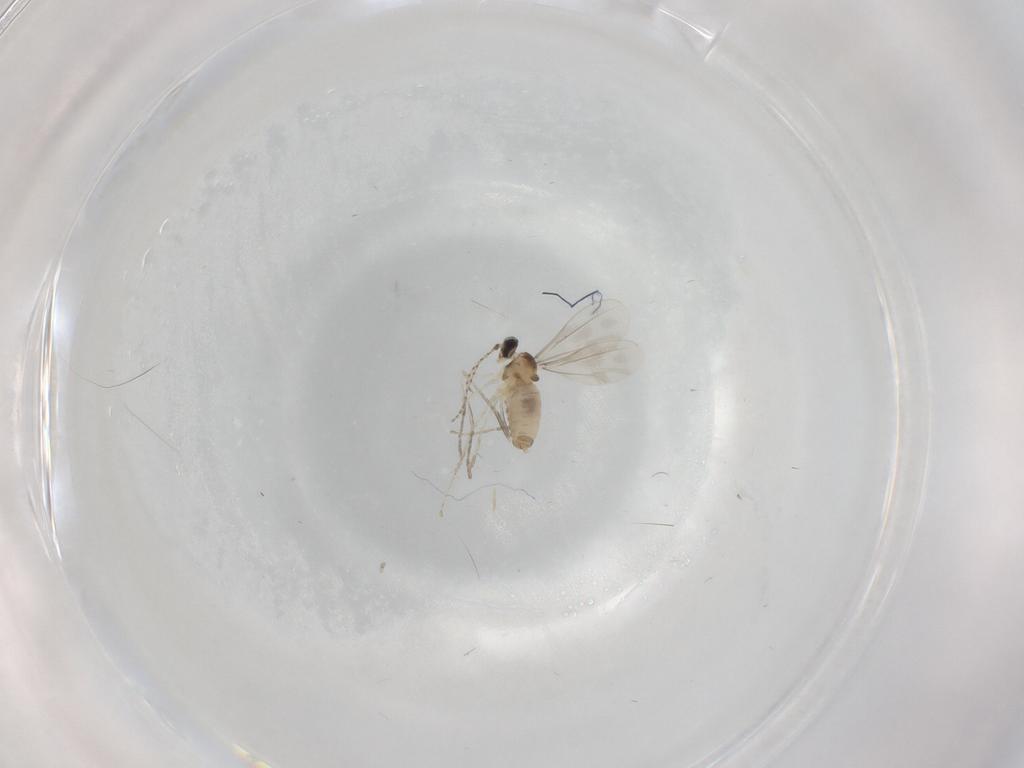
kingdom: Animalia
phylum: Arthropoda
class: Insecta
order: Diptera
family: Cecidomyiidae
